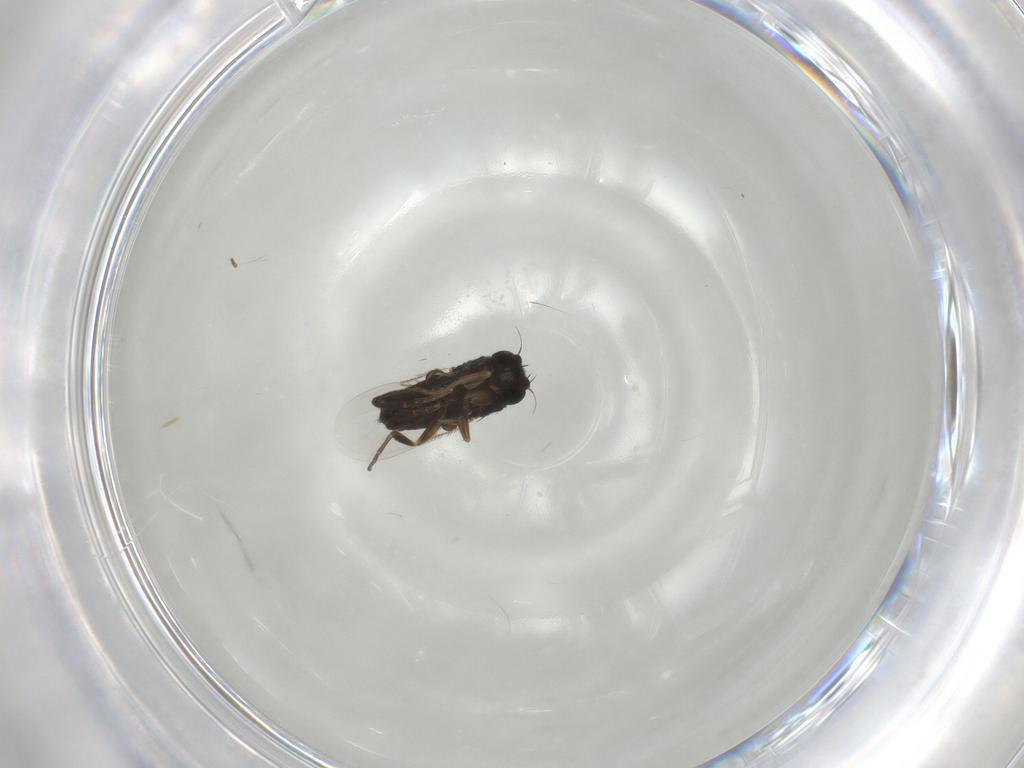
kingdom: Animalia
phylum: Arthropoda
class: Insecta
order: Diptera
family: Phoridae
